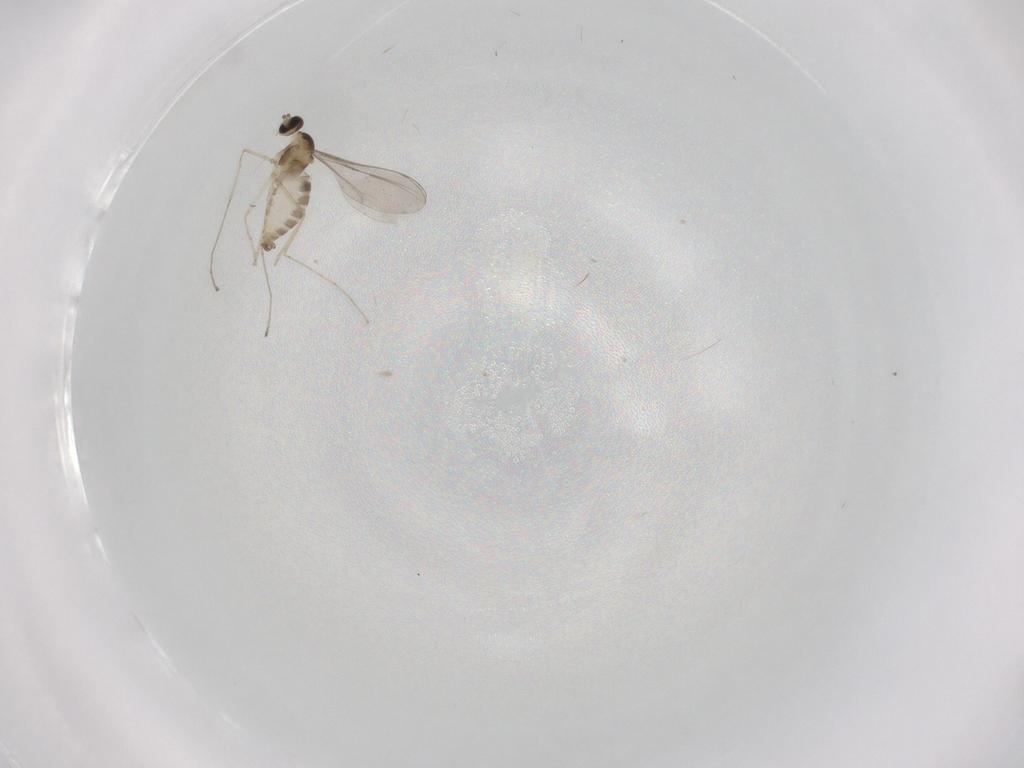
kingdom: Animalia
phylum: Arthropoda
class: Insecta
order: Diptera
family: Cecidomyiidae
